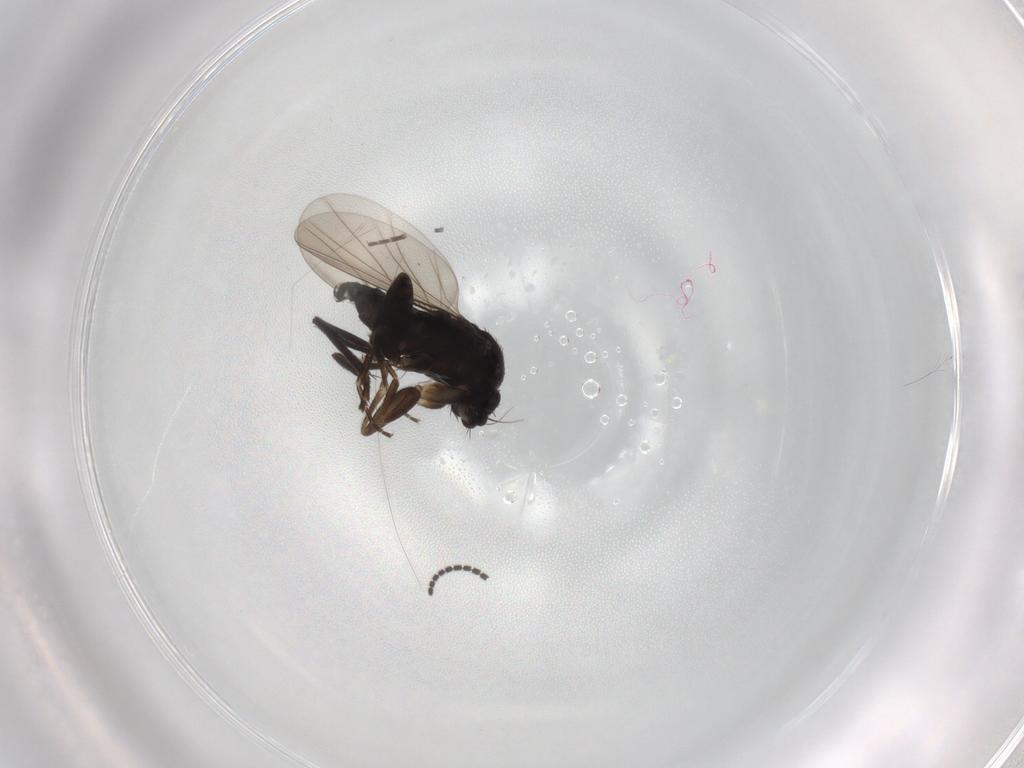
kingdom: Animalia
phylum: Arthropoda
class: Insecta
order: Diptera
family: Phoridae
